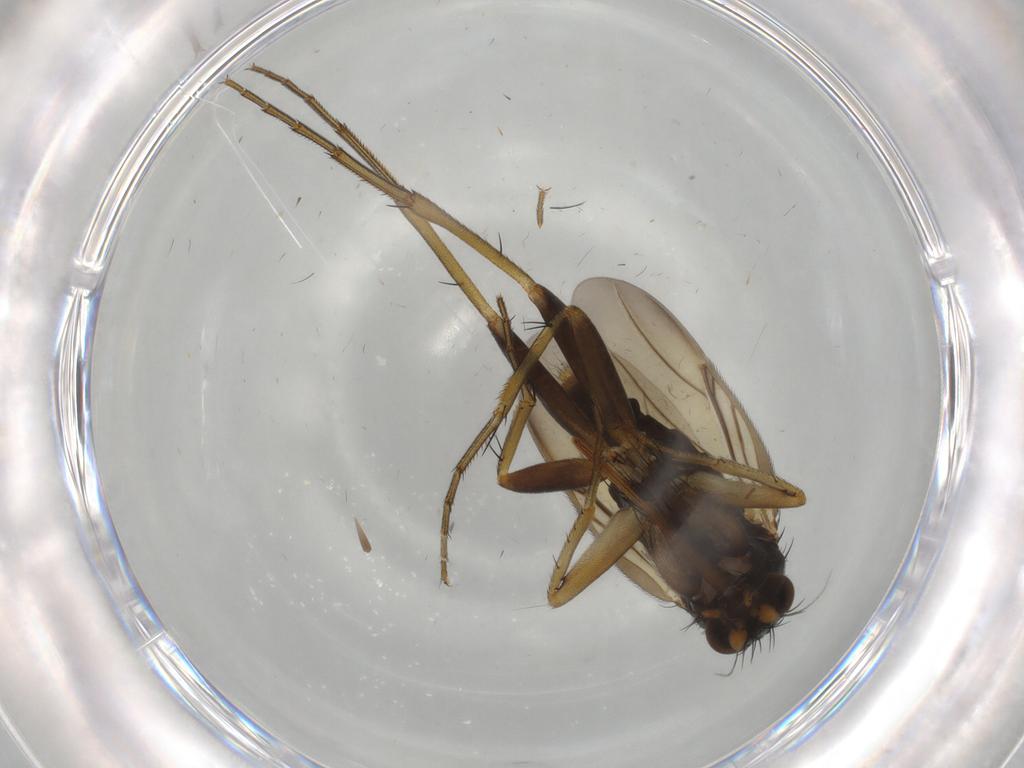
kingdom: Animalia
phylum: Arthropoda
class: Insecta
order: Diptera
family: Phoridae
